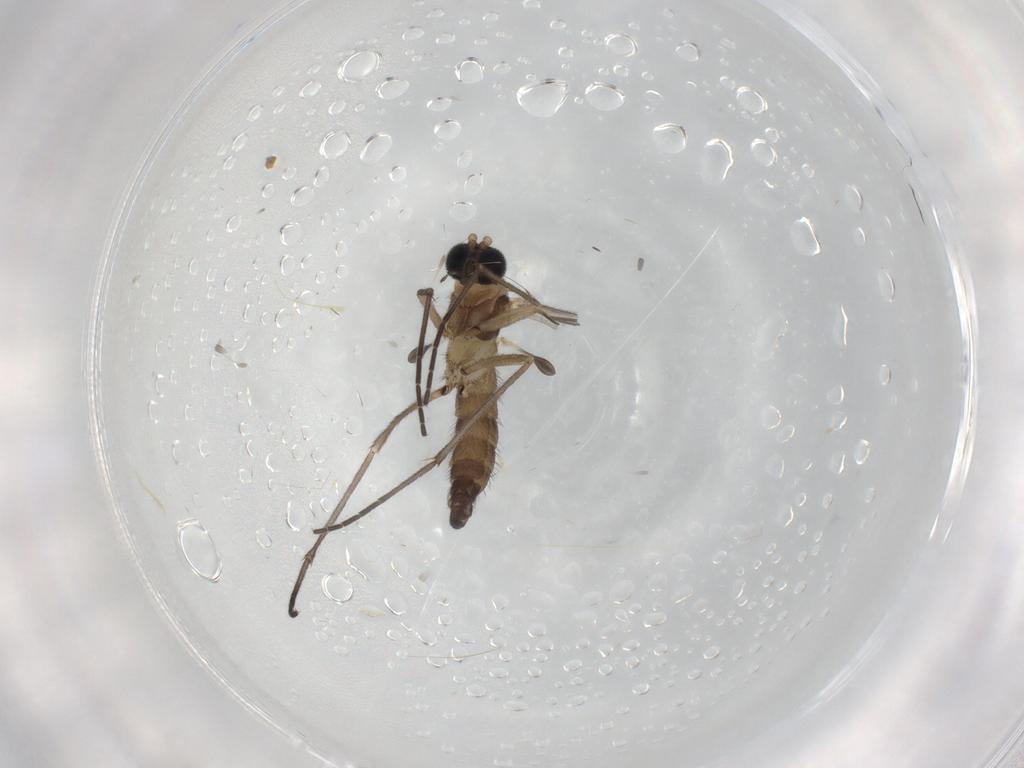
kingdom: Animalia
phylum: Arthropoda
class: Insecta
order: Diptera
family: Sciaridae
